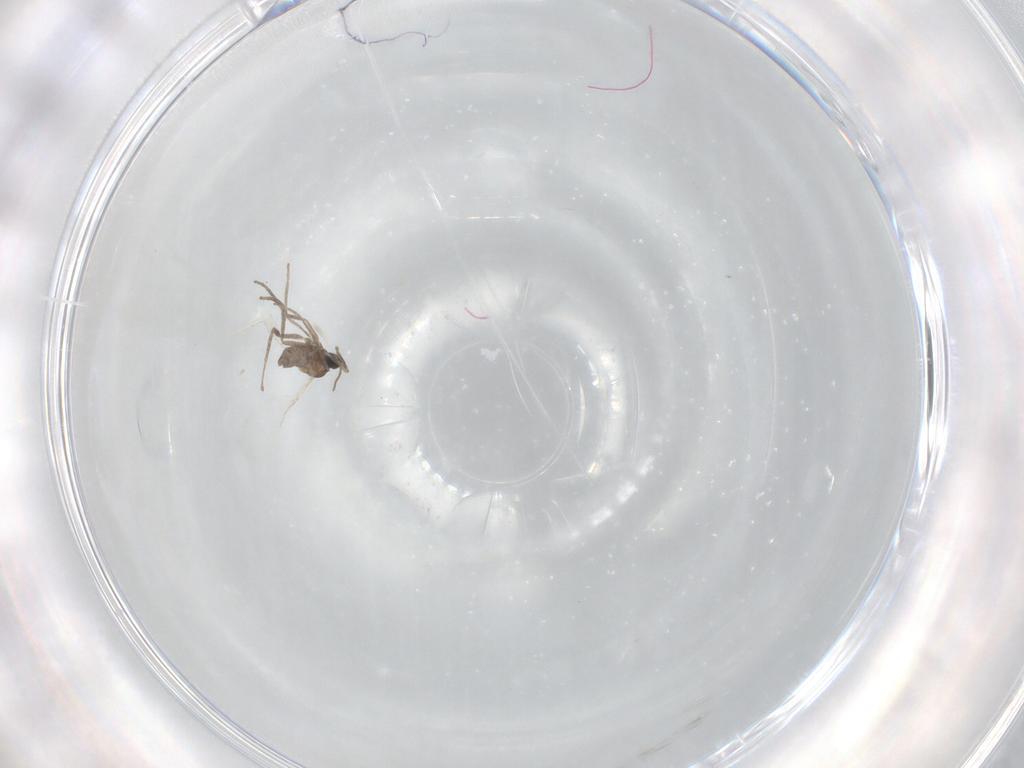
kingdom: Animalia
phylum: Arthropoda
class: Insecta
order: Diptera
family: Cecidomyiidae
